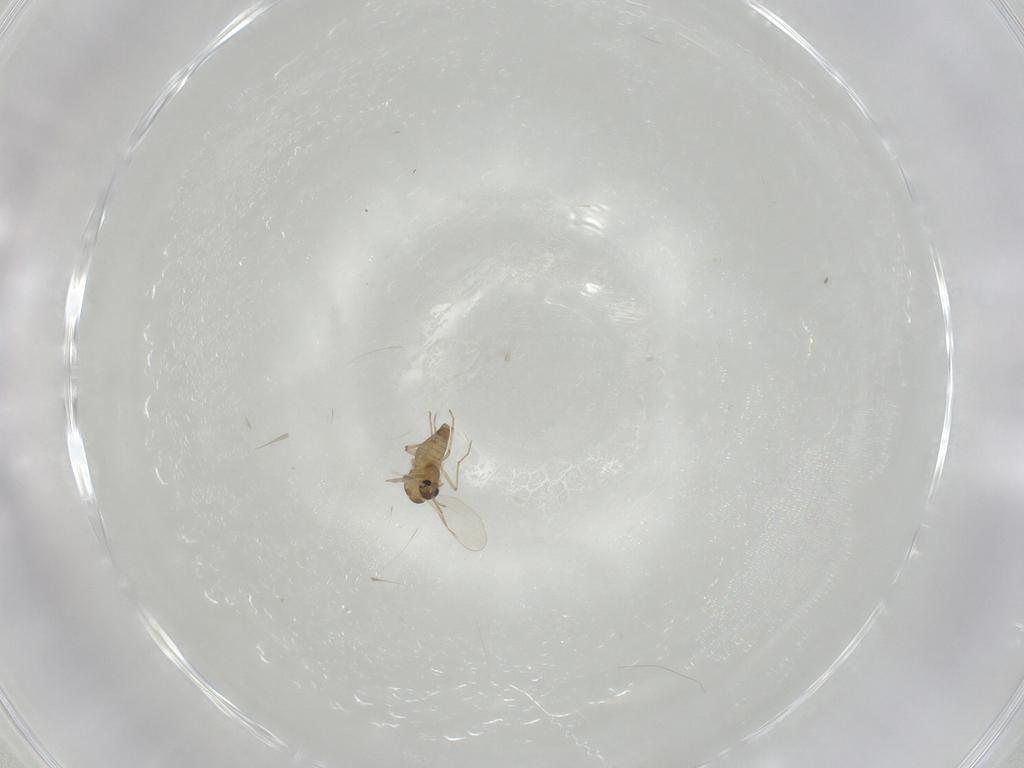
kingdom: Animalia
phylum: Arthropoda
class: Insecta
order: Diptera
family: Chironomidae
